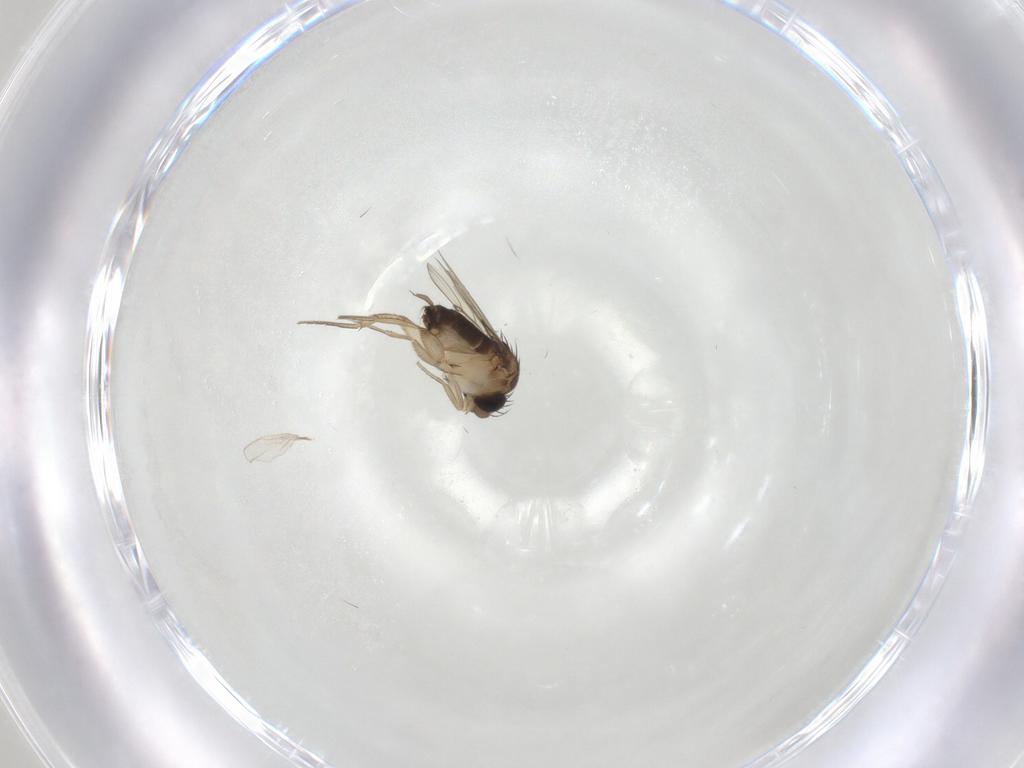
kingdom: Animalia
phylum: Arthropoda
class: Insecta
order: Diptera
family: Phoridae
